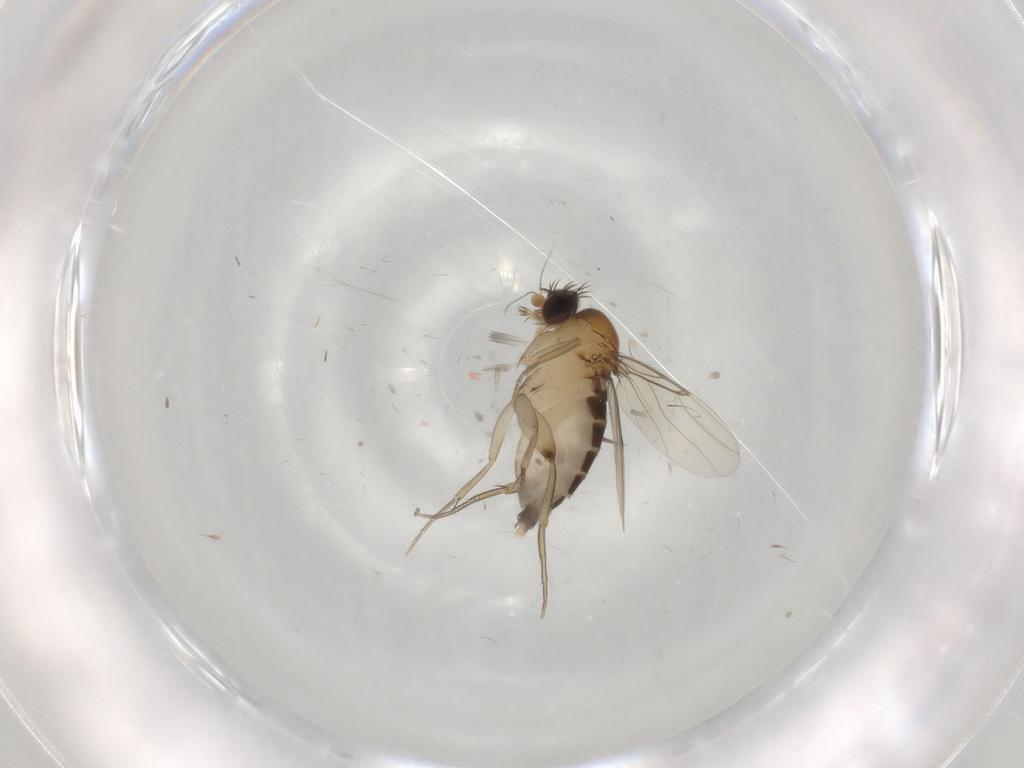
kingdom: Animalia
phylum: Arthropoda
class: Insecta
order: Diptera
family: Phoridae
